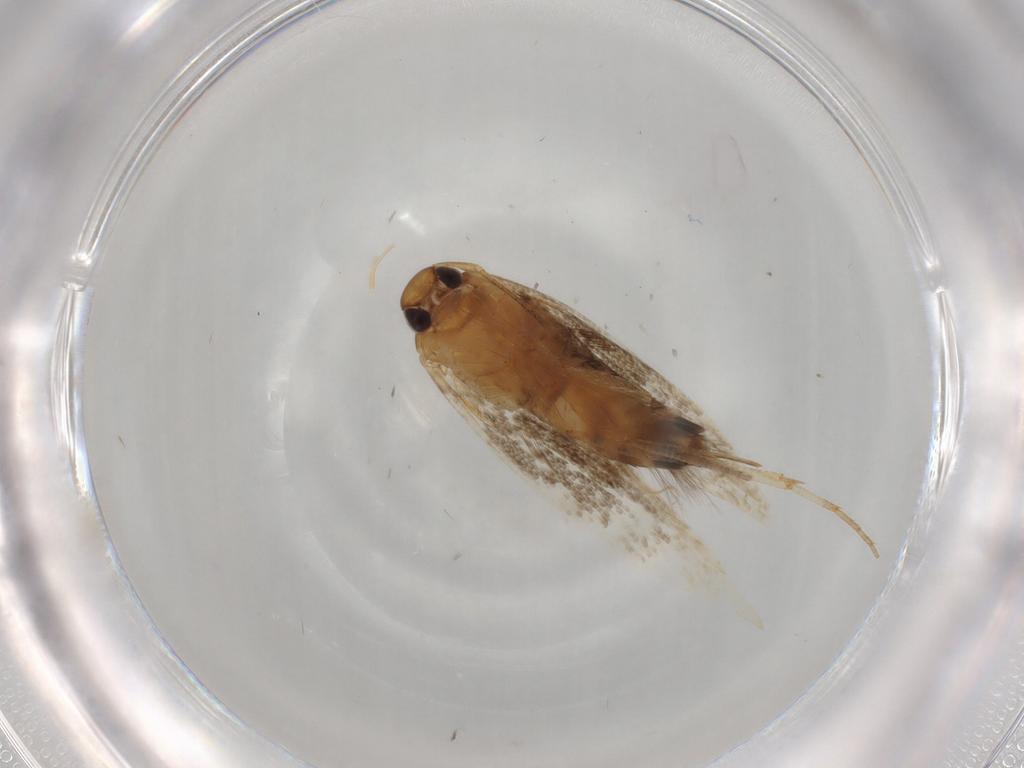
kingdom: Animalia
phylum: Arthropoda
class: Insecta
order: Lepidoptera
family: Cosmopterigidae
